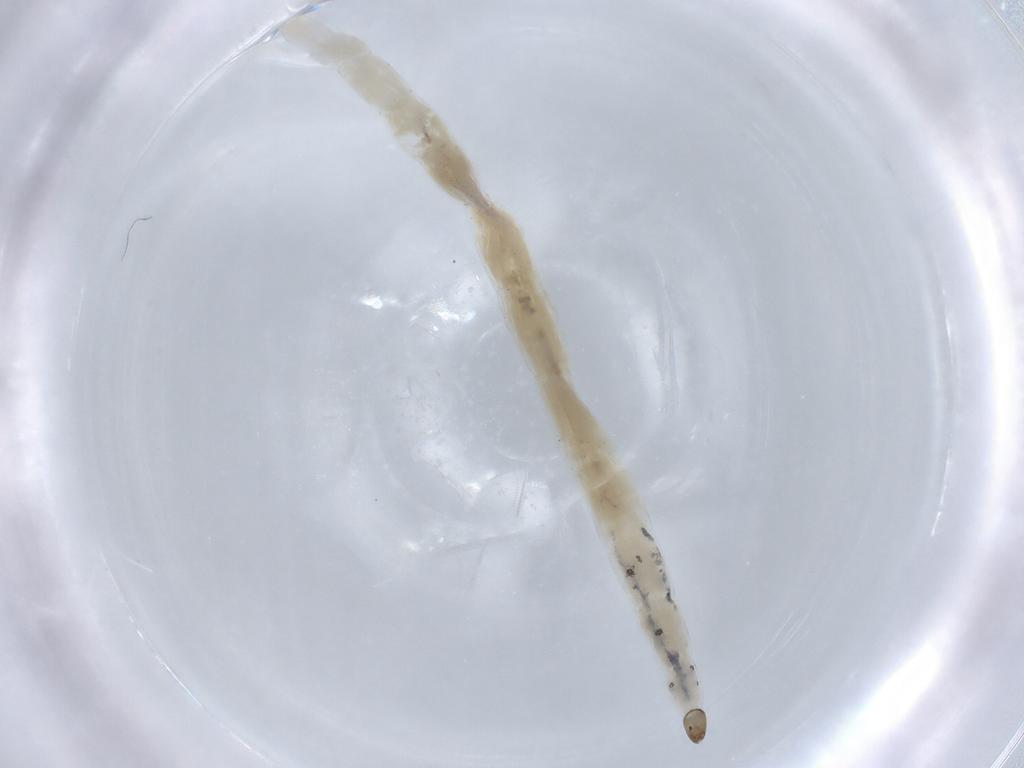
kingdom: Animalia
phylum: Arthropoda
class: Insecta
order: Diptera
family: Ceratopogonidae
